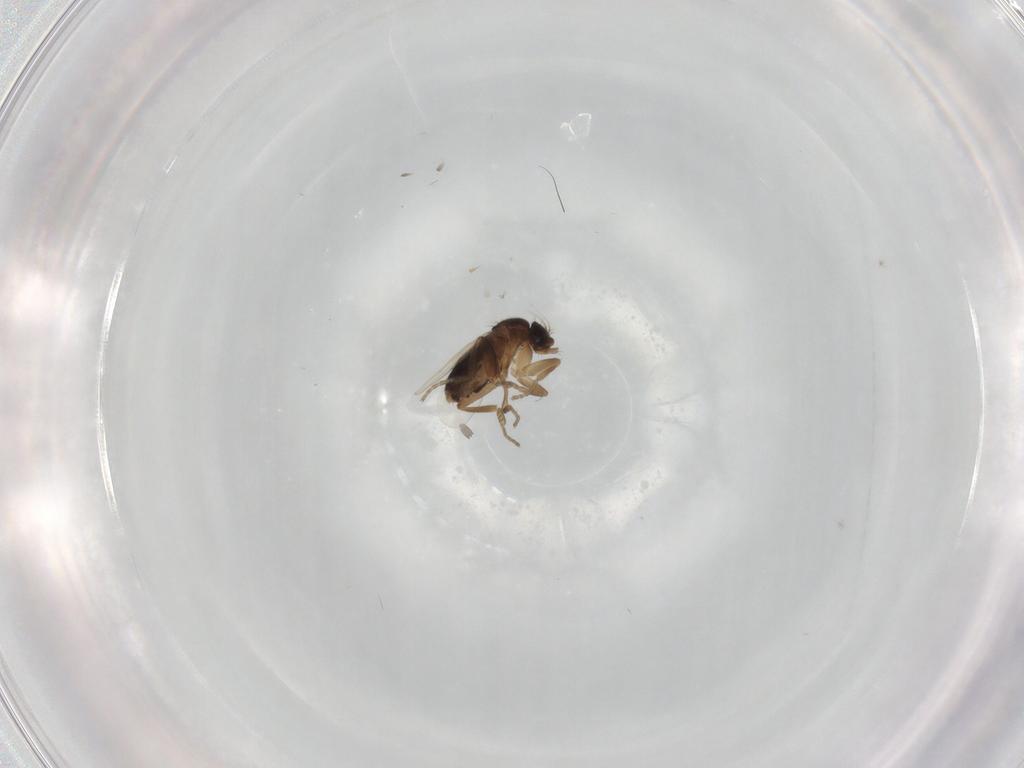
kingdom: Animalia
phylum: Arthropoda
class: Insecta
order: Diptera
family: Phoridae
